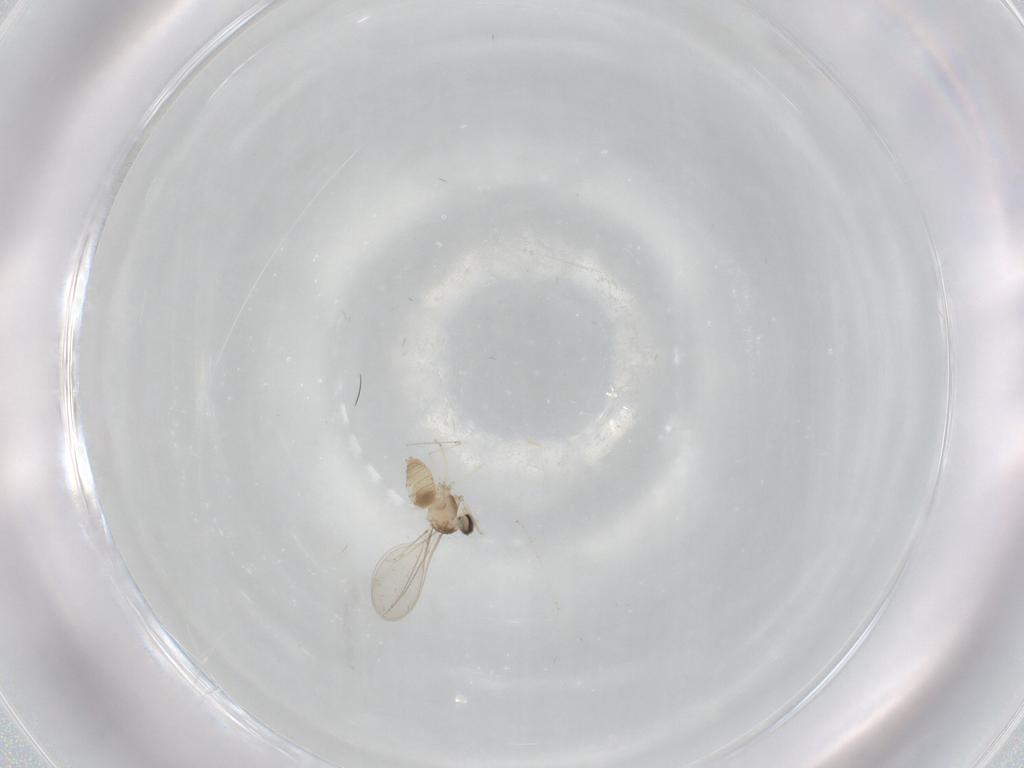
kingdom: Animalia
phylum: Arthropoda
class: Insecta
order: Diptera
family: Cecidomyiidae
